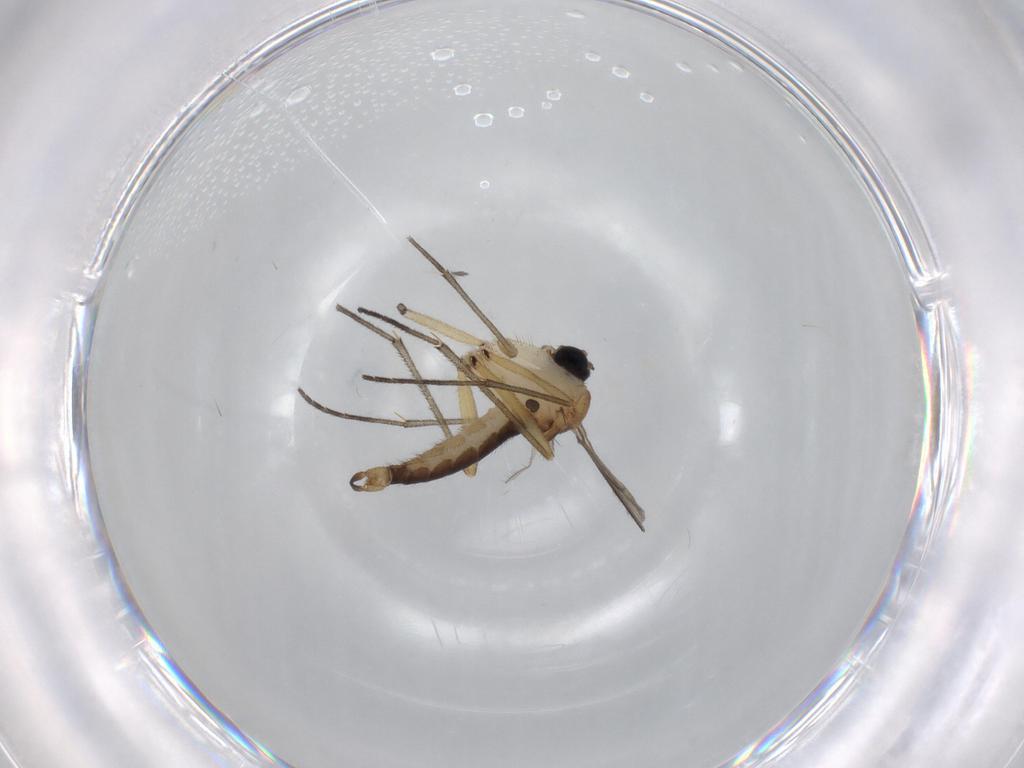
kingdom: Animalia
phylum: Arthropoda
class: Insecta
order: Diptera
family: Sciaridae
